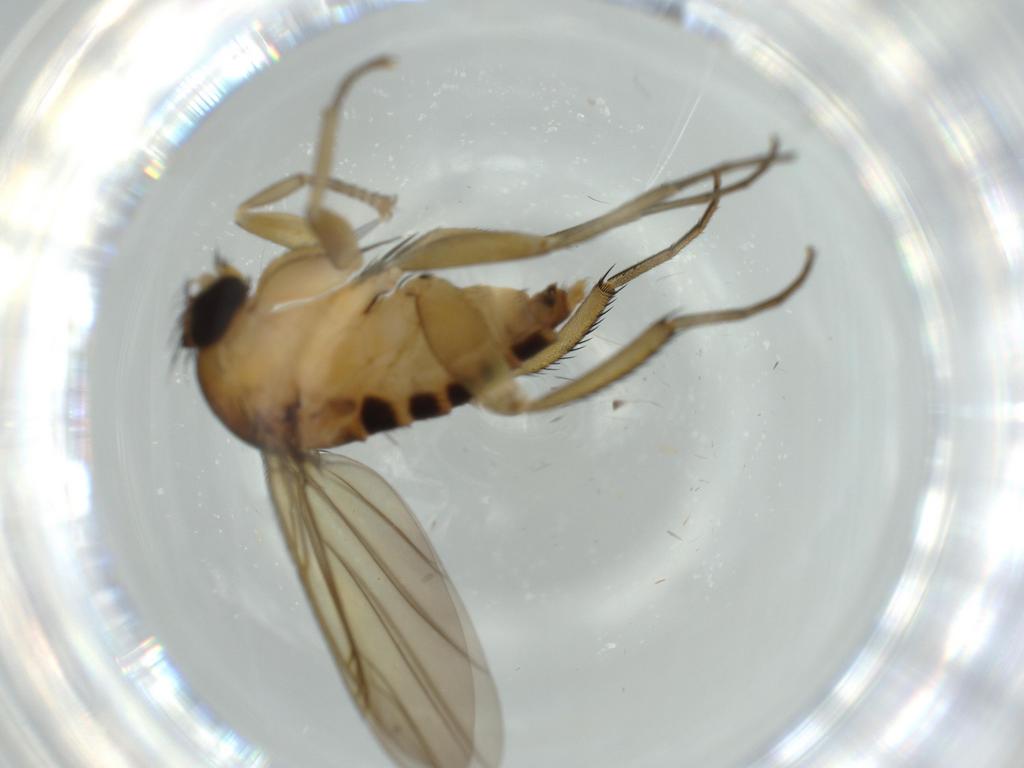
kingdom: Animalia
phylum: Arthropoda
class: Insecta
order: Diptera
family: Phoridae
